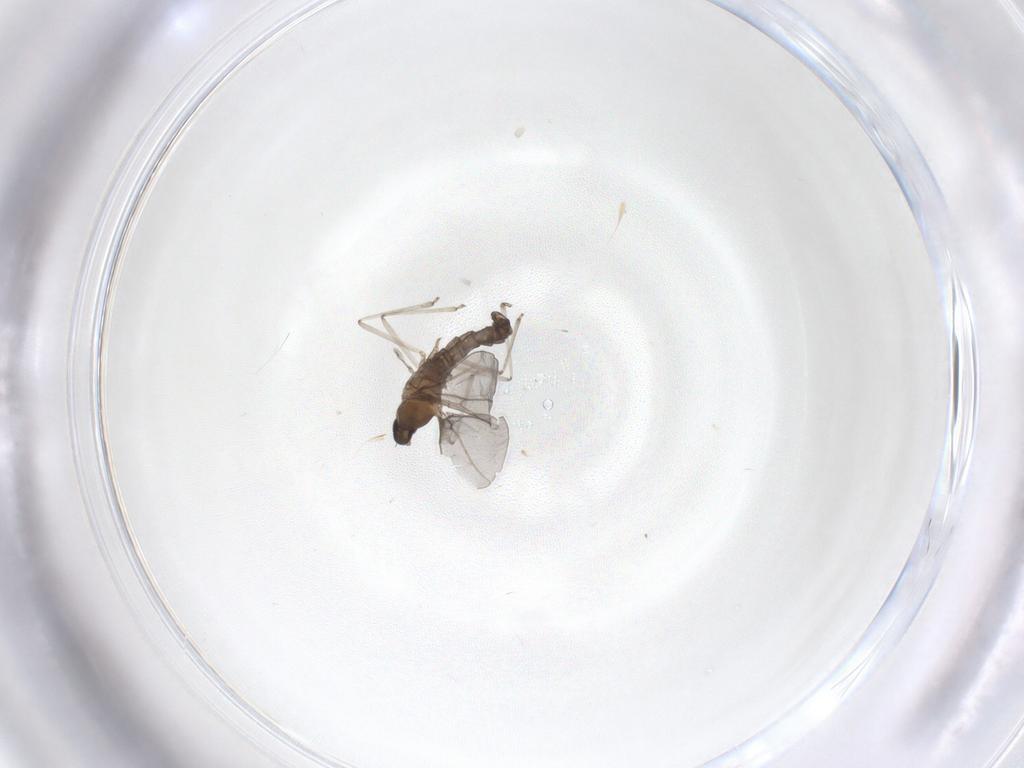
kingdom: Animalia
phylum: Arthropoda
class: Insecta
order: Diptera
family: Cecidomyiidae
